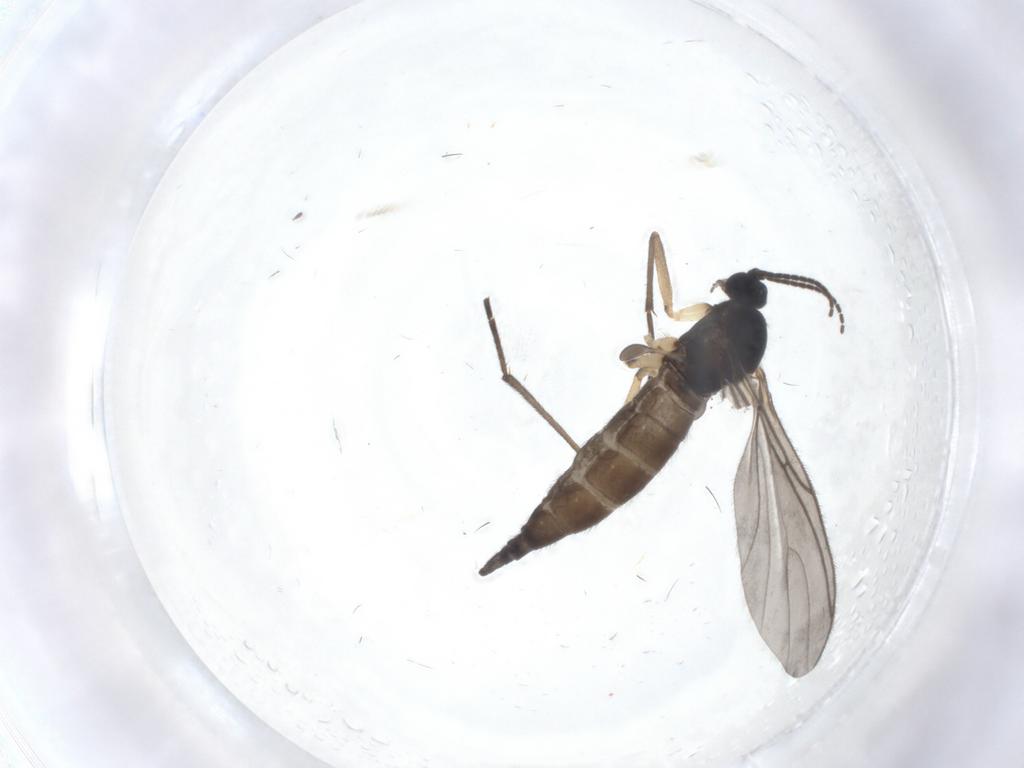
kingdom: Animalia
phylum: Arthropoda
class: Insecta
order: Diptera
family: Sciaridae
